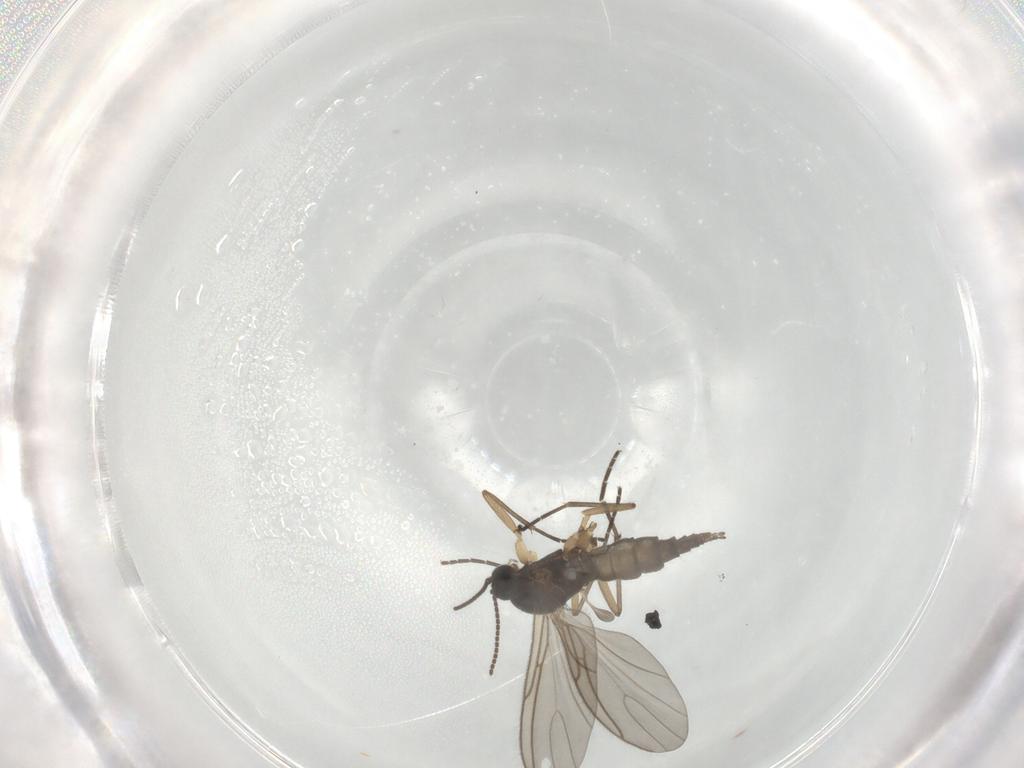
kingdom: Animalia
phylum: Arthropoda
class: Insecta
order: Diptera
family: Sciaridae
